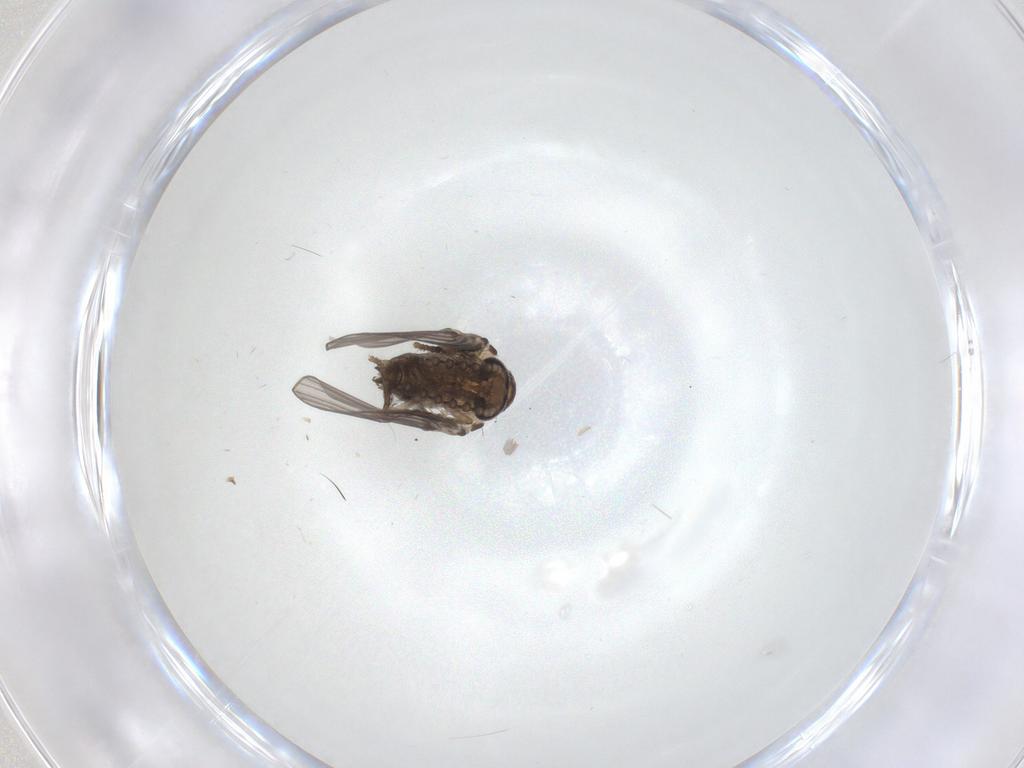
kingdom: Animalia
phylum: Arthropoda
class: Insecta
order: Diptera
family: Psychodidae
